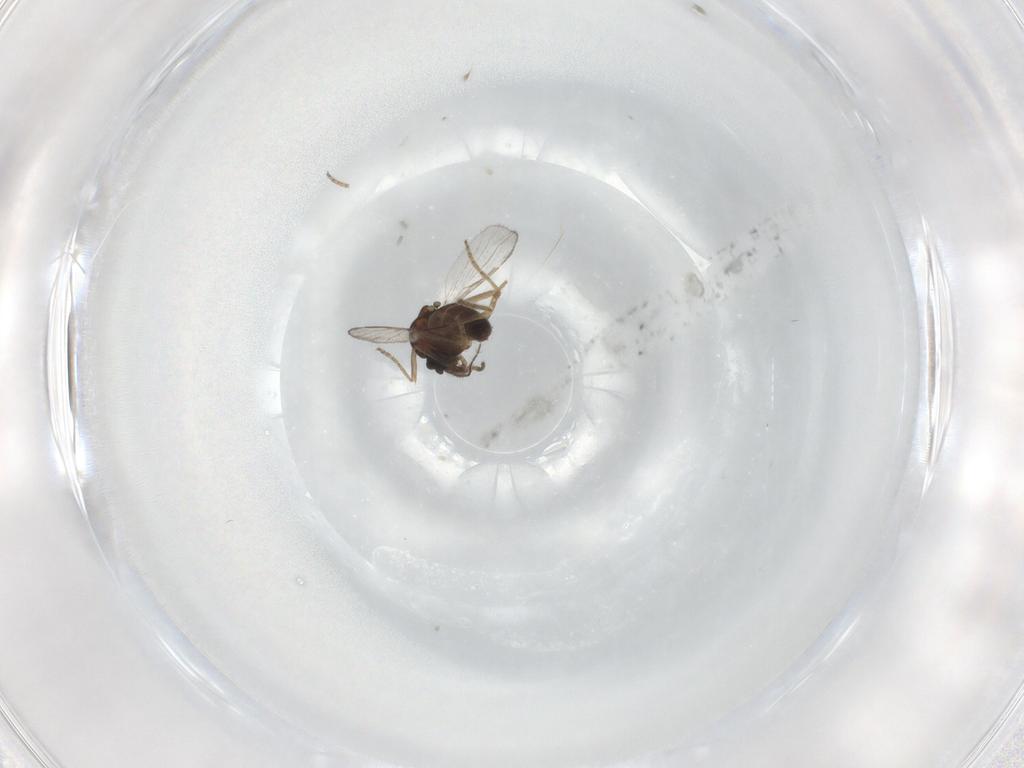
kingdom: Animalia
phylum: Arthropoda
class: Insecta
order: Diptera
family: Ceratopogonidae
